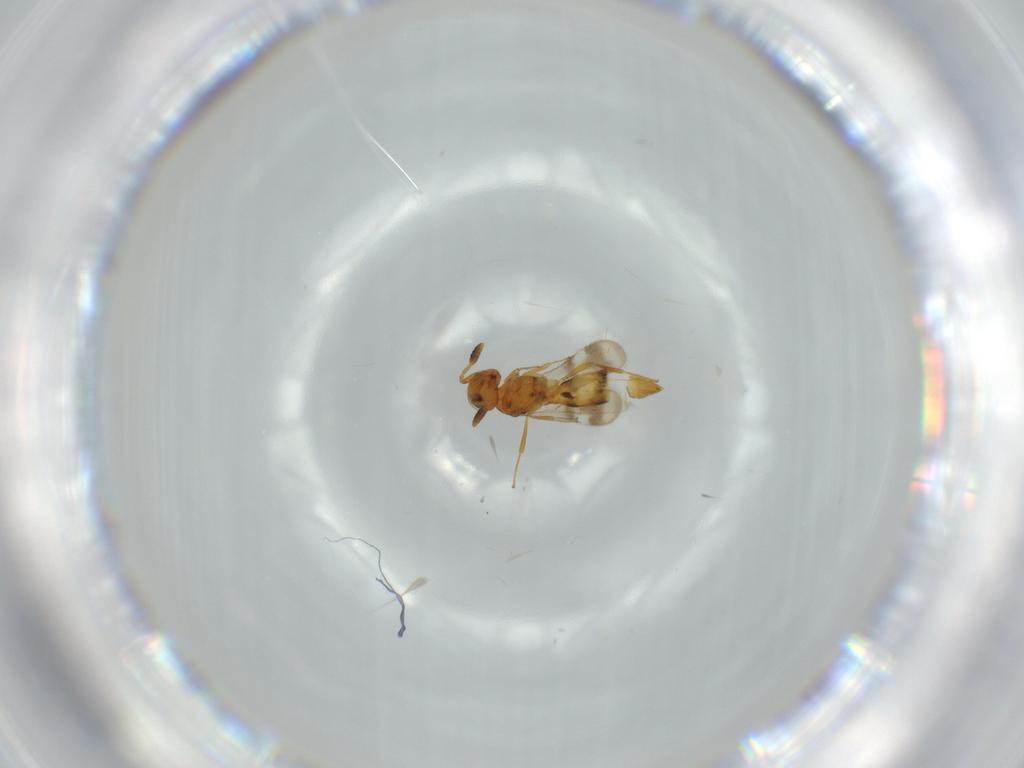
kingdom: Animalia
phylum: Arthropoda
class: Insecta
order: Hymenoptera
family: Scelionidae
